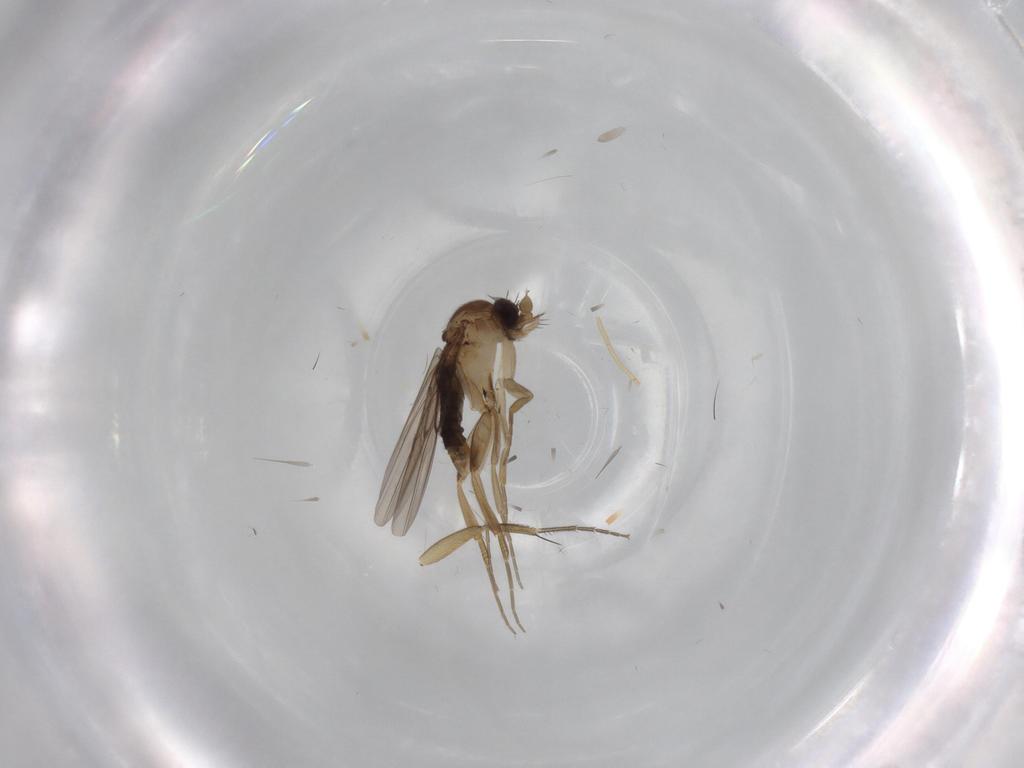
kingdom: Animalia
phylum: Arthropoda
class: Insecta
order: Diptera
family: Phoridae
